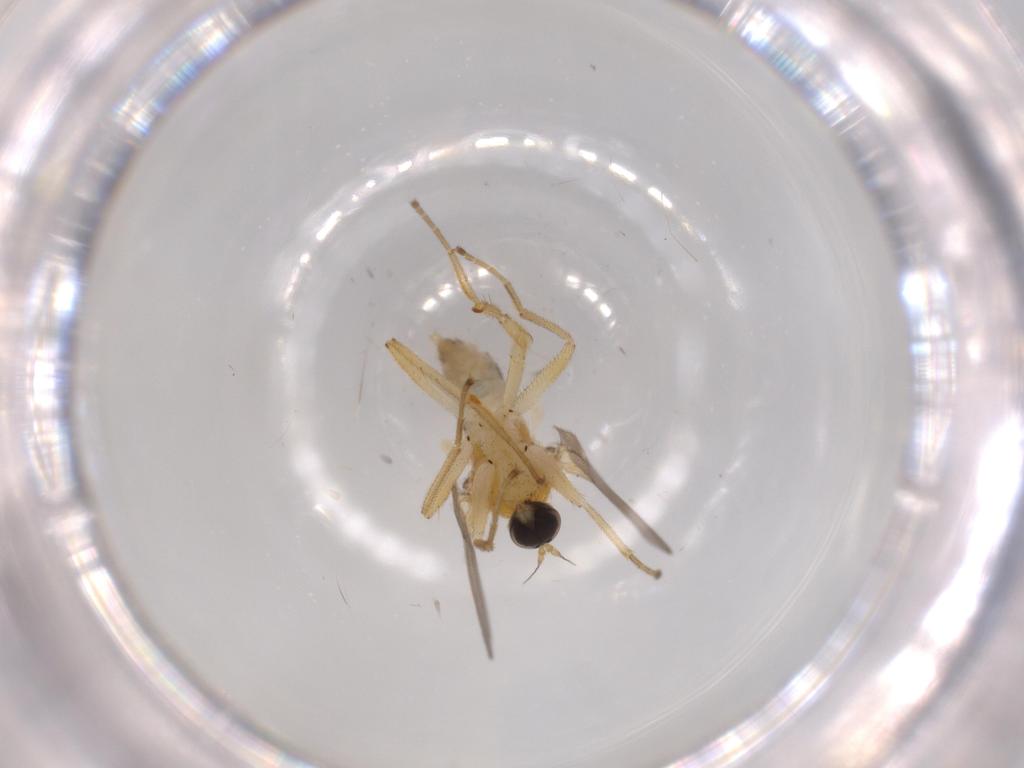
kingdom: Animalia
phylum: Arthropoda
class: Insecta
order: Diptera
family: Hybotidae
